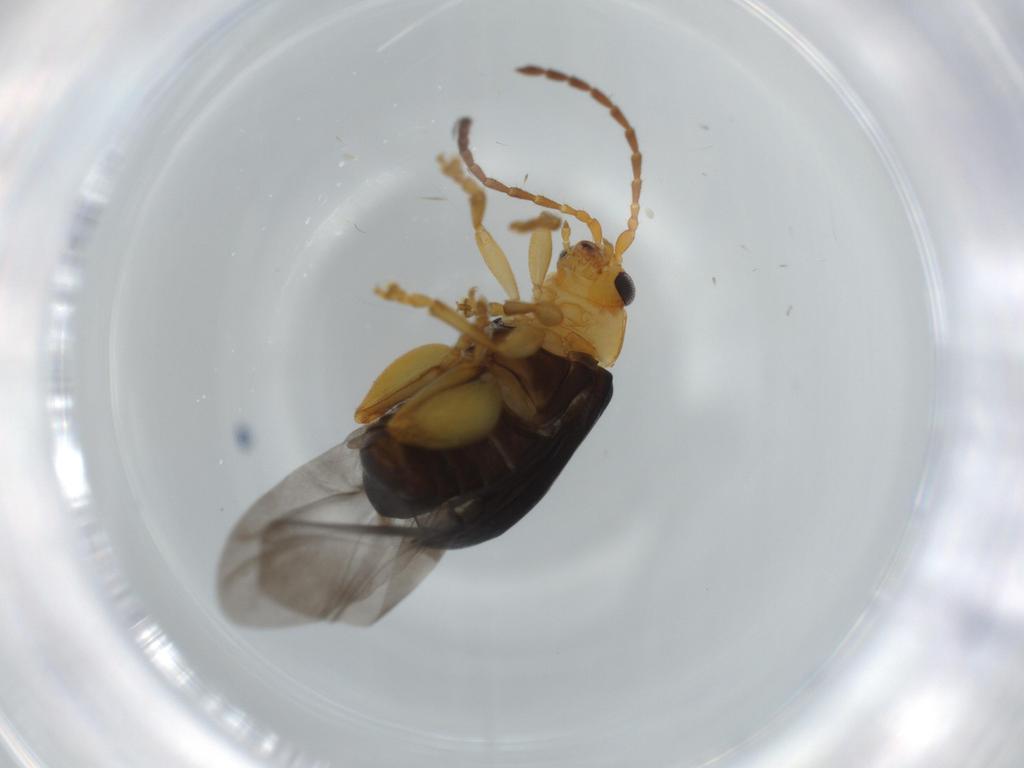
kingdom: Animalia
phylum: Arthropoda
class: Insecta
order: Coleoptera
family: Chrysomelidae
